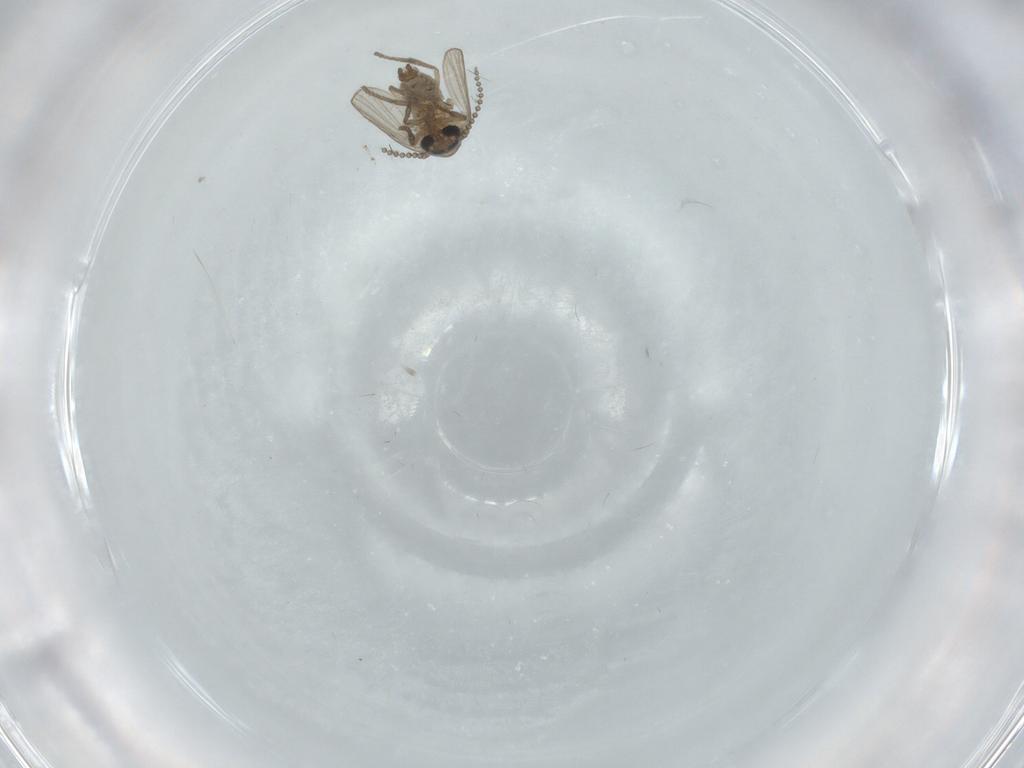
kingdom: Animalia
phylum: Arthropoda
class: Insecta
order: Diptera
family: Psychodidae
